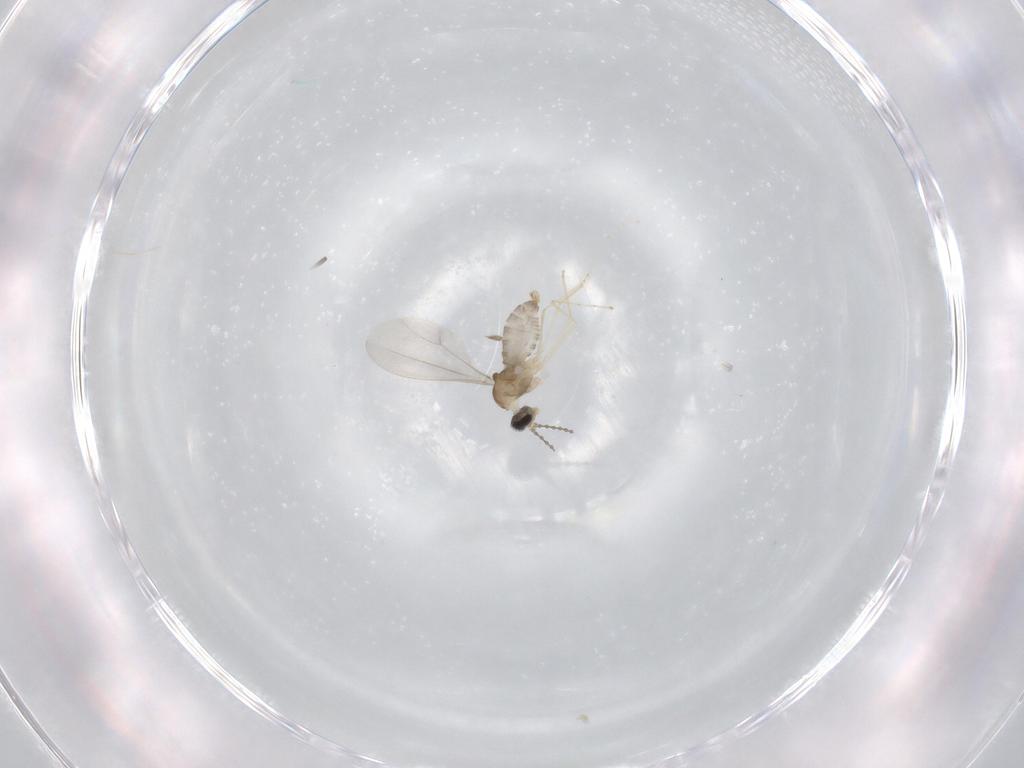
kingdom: Animalia
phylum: Arthropoda
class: Insecta
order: Diptera
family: Cecidomyiidae
